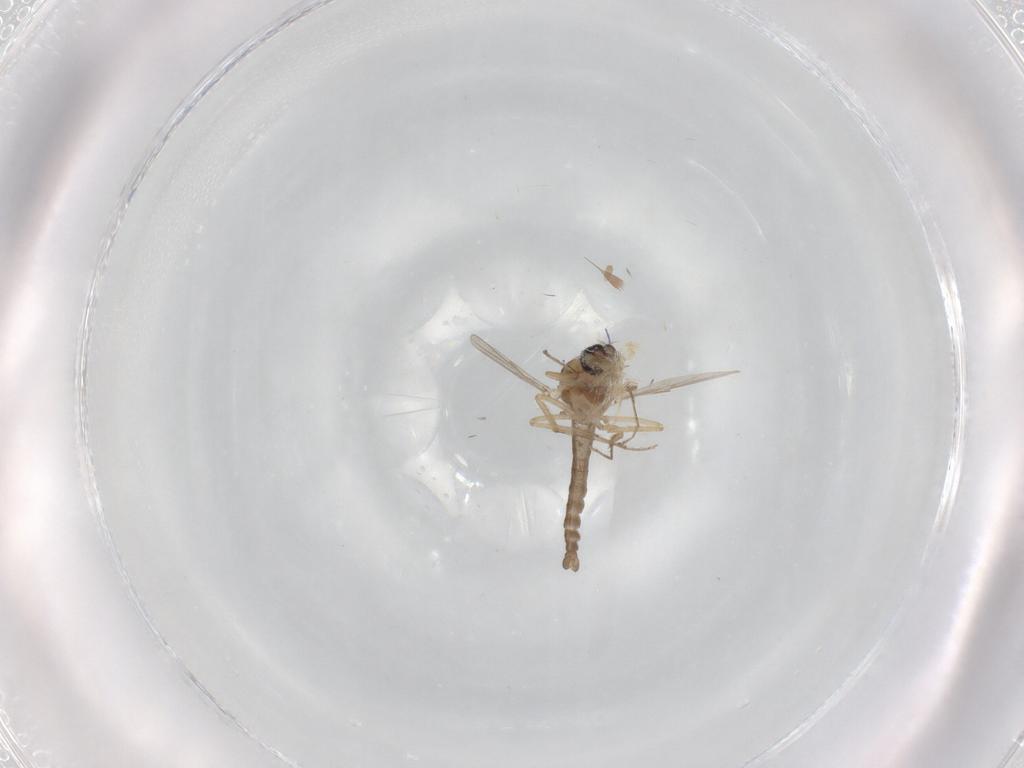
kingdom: Animalia
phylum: Arthropoda
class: Insecta
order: Diptera
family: Ceratopogonidae
